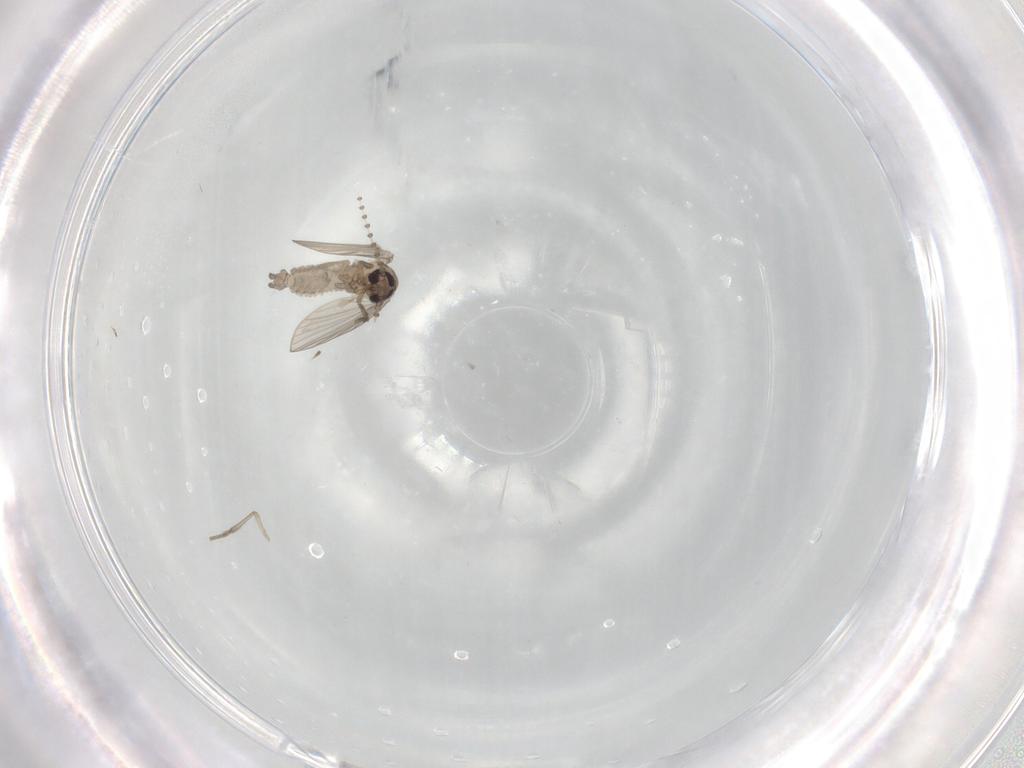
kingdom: Animalia
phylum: Arthropoda
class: Insecta
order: Diptera
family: Psychodidae
